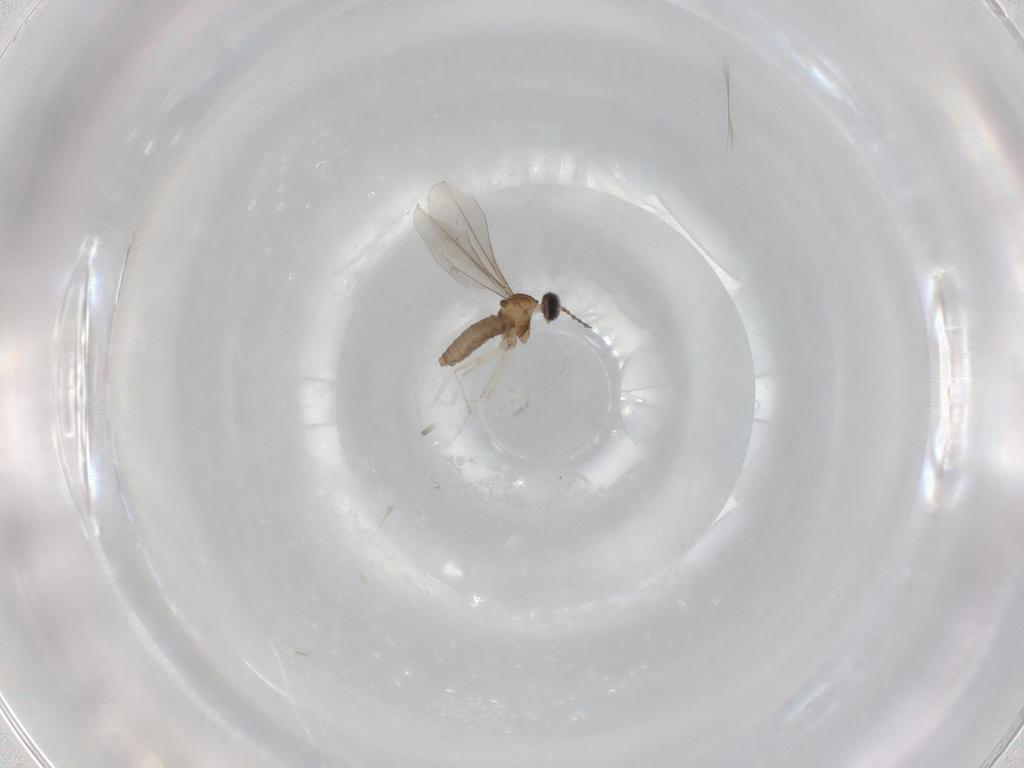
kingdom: Animalia
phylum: Arthropoda
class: Insecta
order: Diptera
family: Cecidomyiidae
